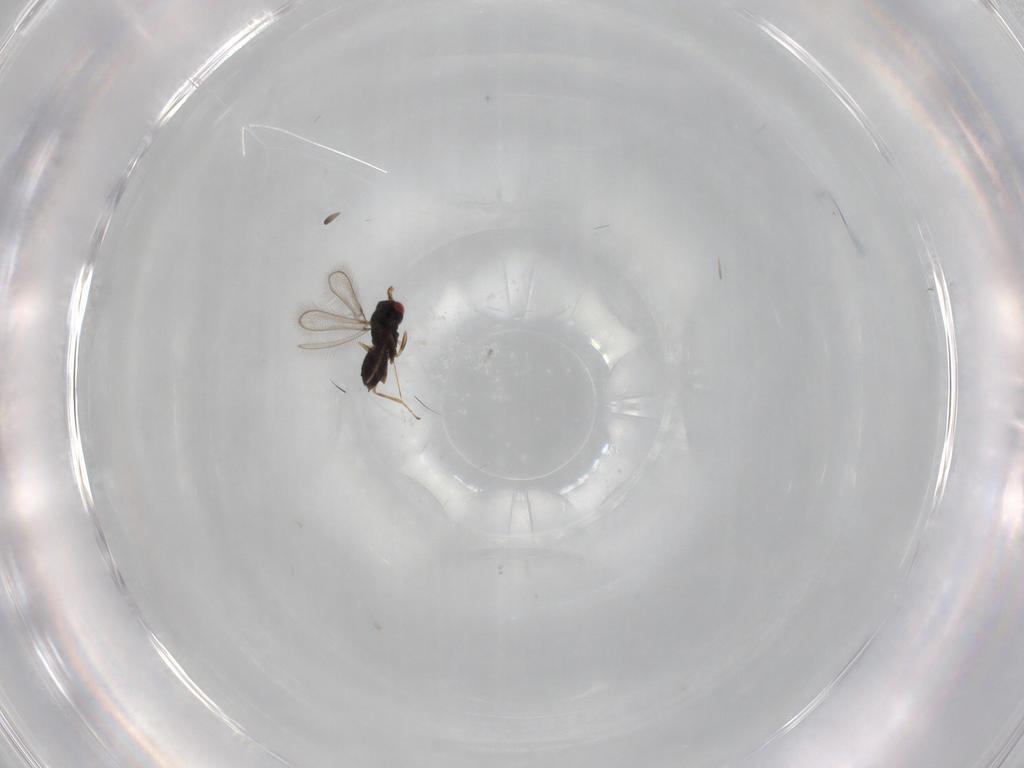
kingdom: Animalia
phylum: Arthropoda
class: Insecta
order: Hymenoptera
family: Mymaridae
